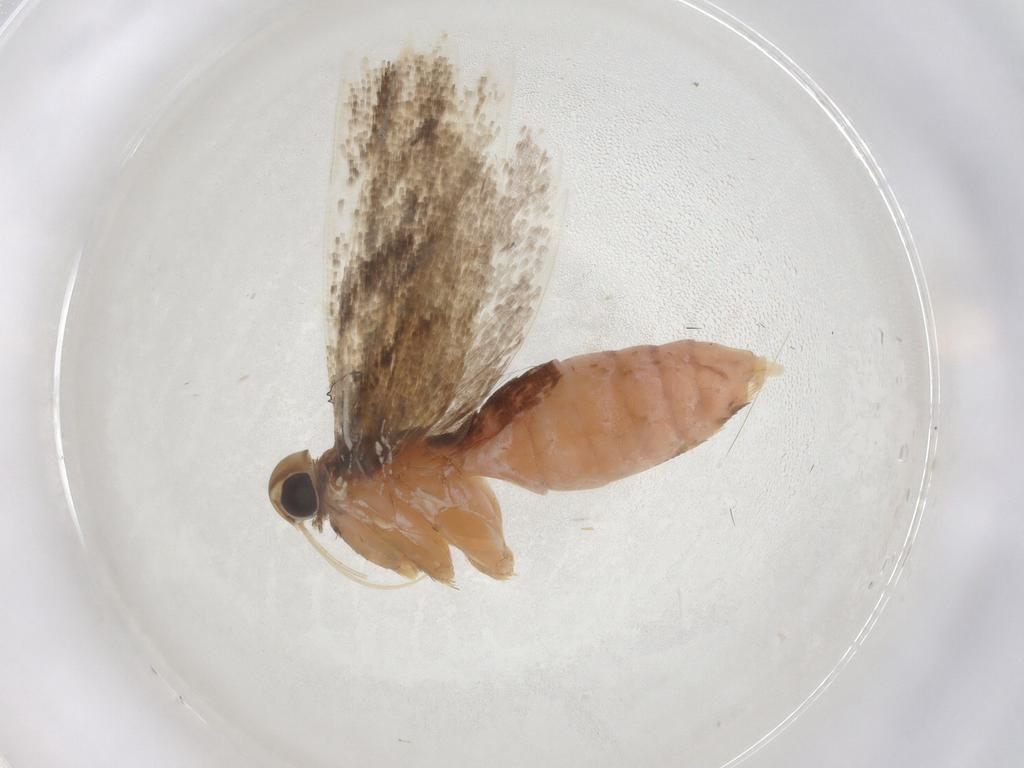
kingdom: Animalia
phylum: Arthropoda
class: Insecta
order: Lepidoptera
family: Gelechiidae
